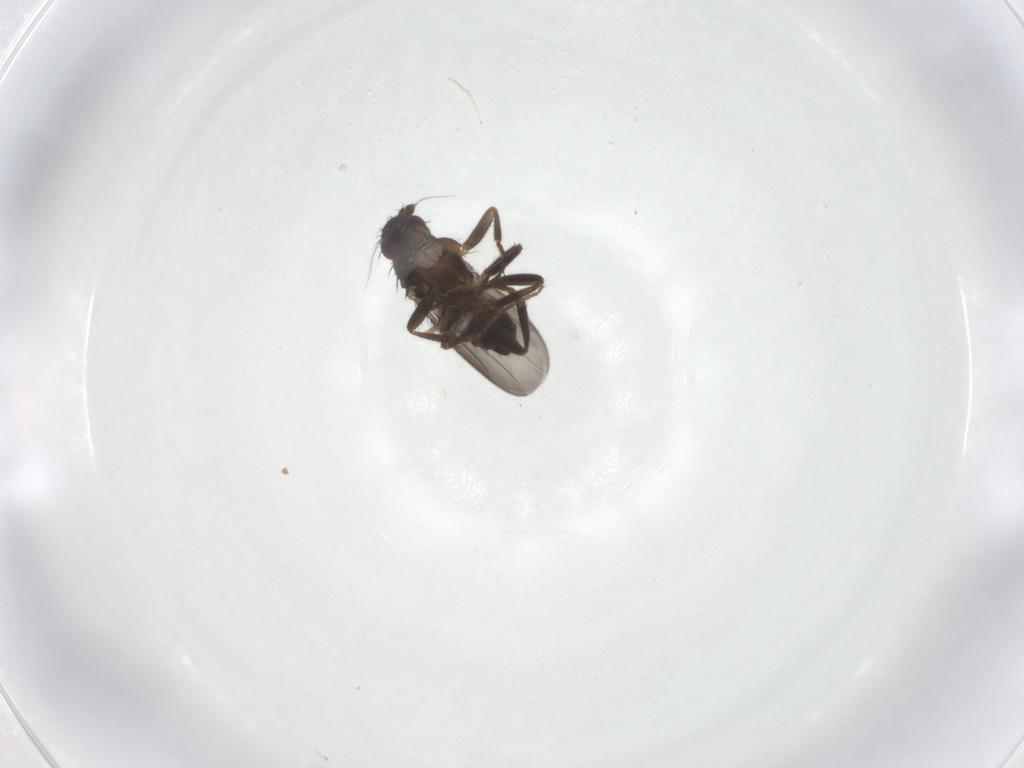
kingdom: Animalia
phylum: Arthropoda
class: Insecta
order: Diptera
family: Sphaeroceridae
